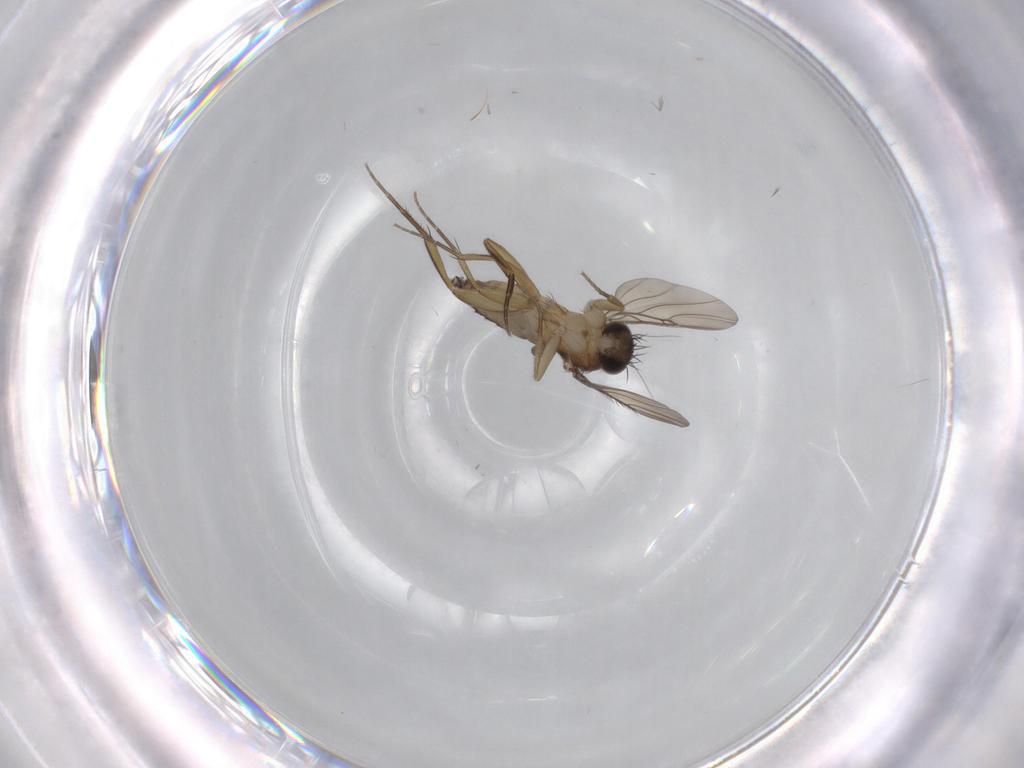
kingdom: Animalia
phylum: Arthropoda
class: Insecta
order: Diptera
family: Phoridae
